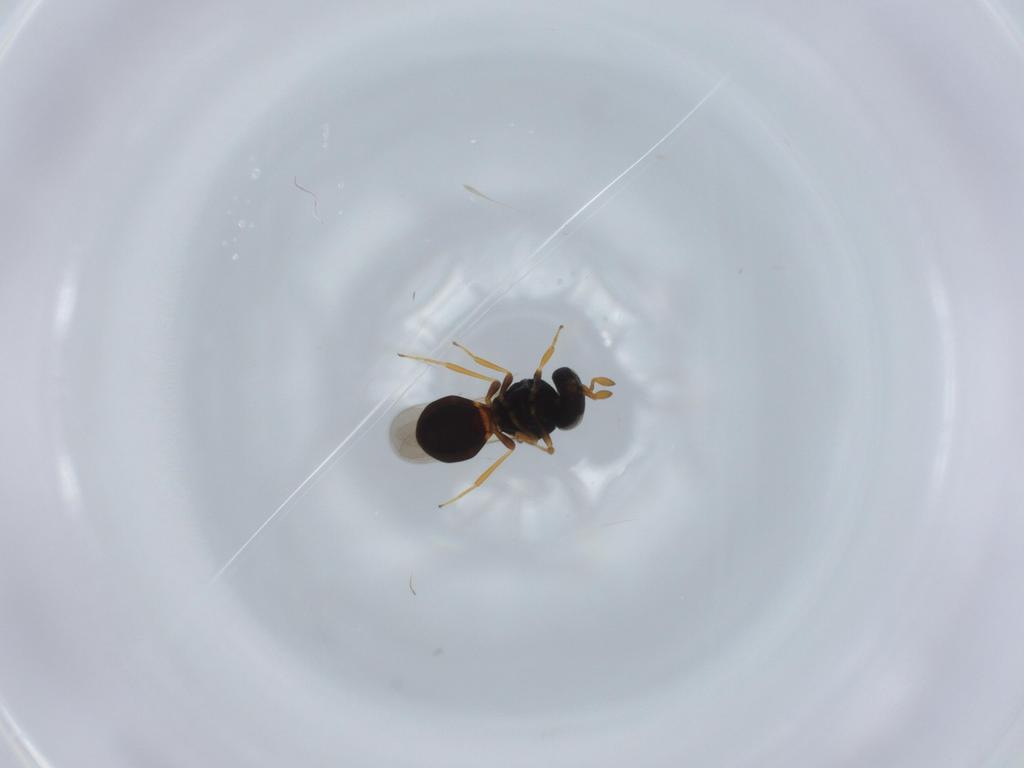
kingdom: Animalia
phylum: Arthropoda
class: Insecta
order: Hymenoptera
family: Scelionidae
